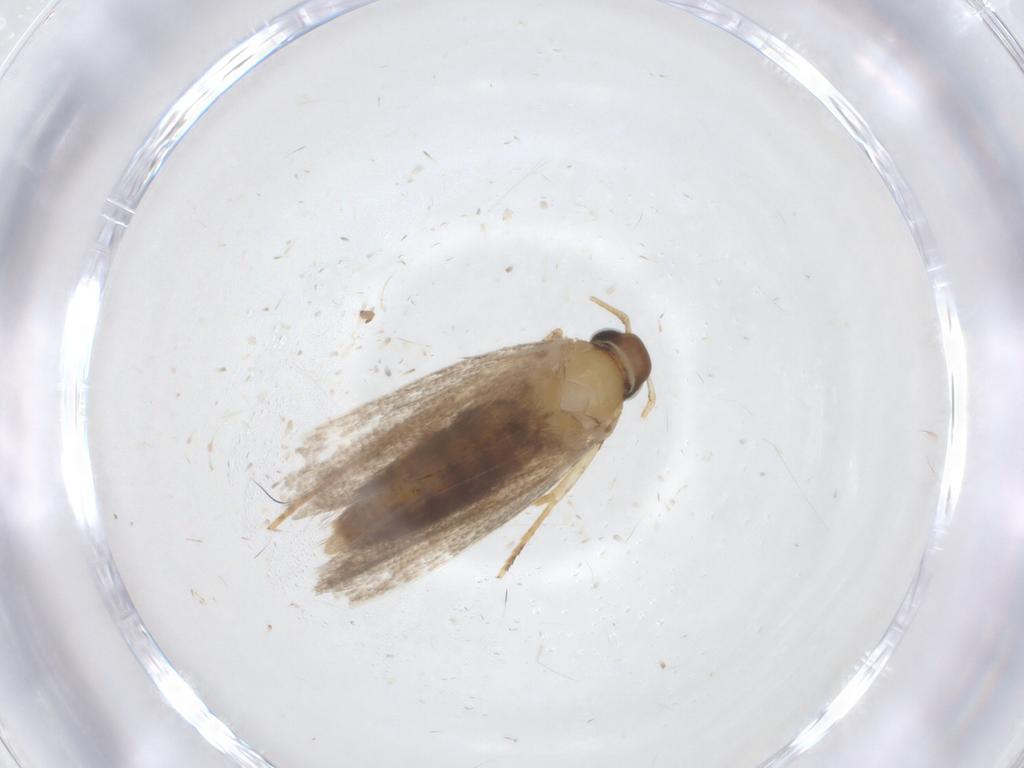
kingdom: Animalia
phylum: Arthropoda
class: Insecta
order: Lepidoptera
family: Oecophoridae
